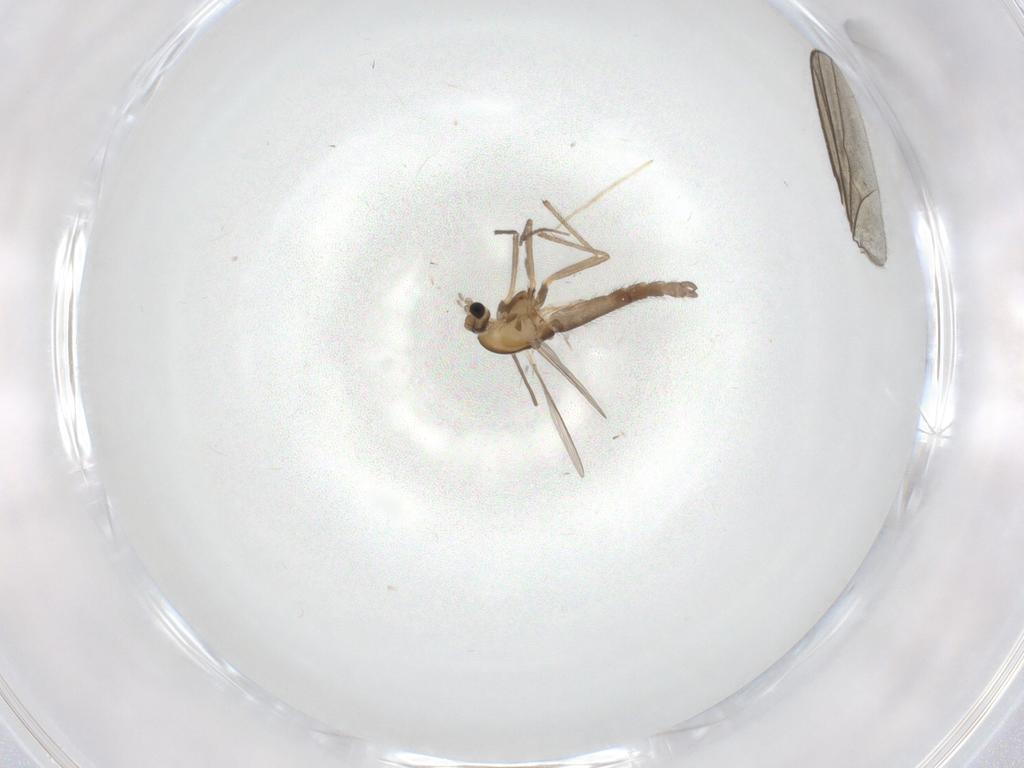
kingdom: Animalia
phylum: Arthropoda
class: Insecta
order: Diptera
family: Chironomidae
